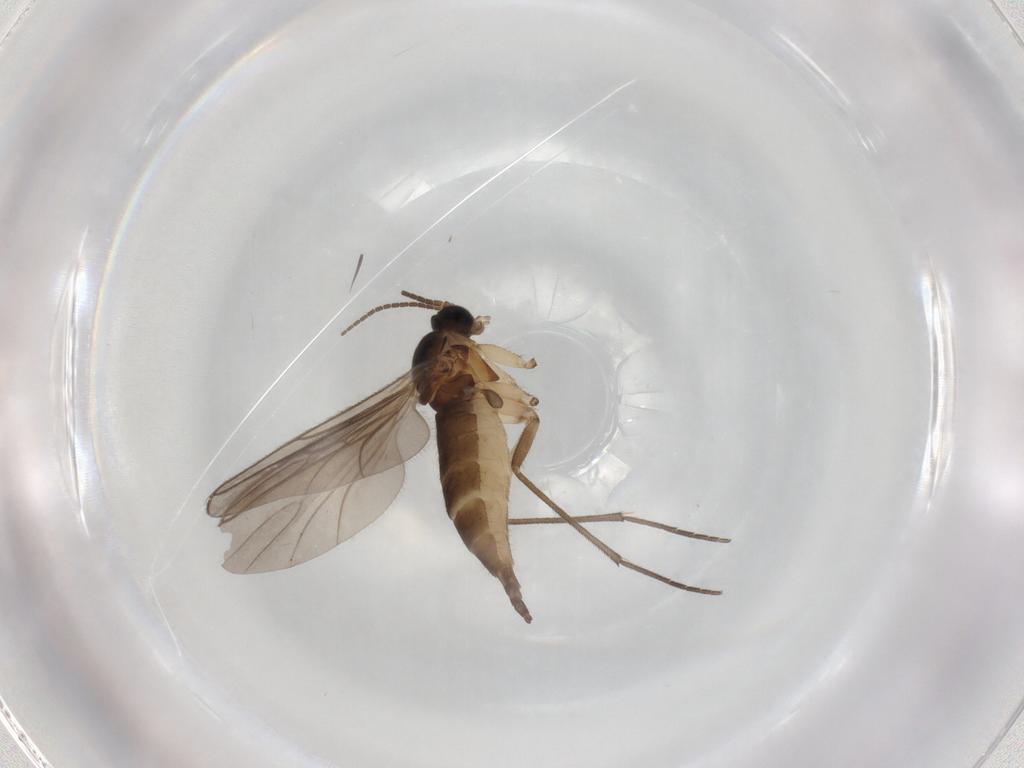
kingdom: Animalia
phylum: Arthropoda
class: Insecta
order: Diptera
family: Sciaridae
